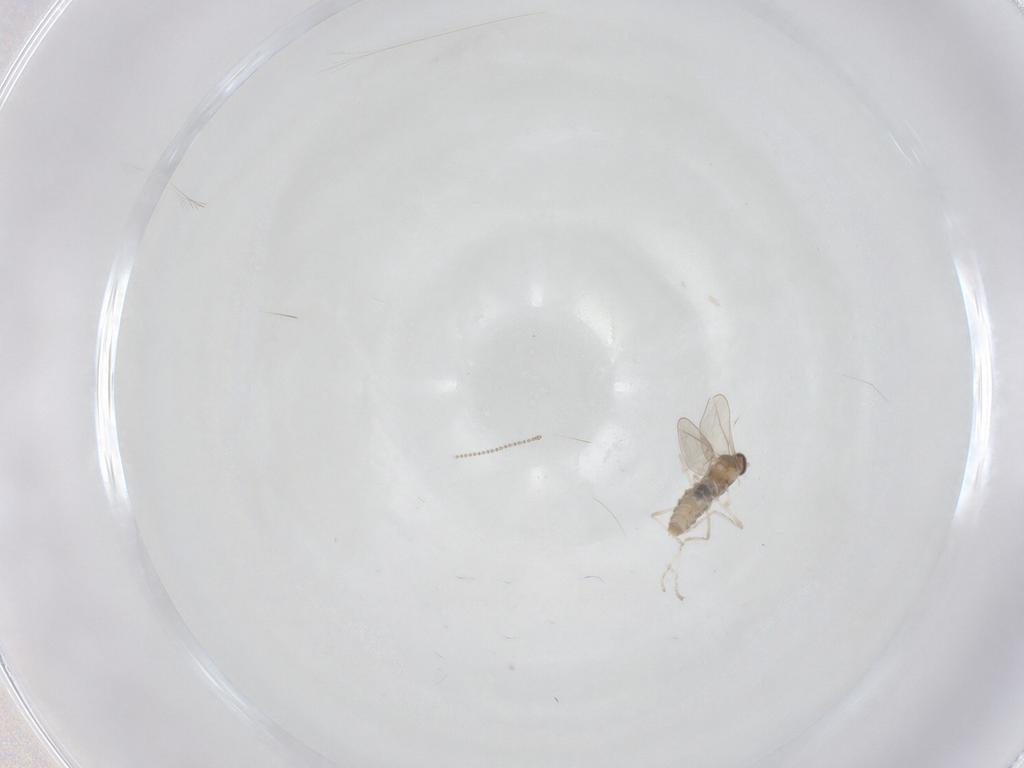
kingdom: Animalia
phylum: Arthropoda
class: Insecta
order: Diptera
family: Cecidomyiidae
